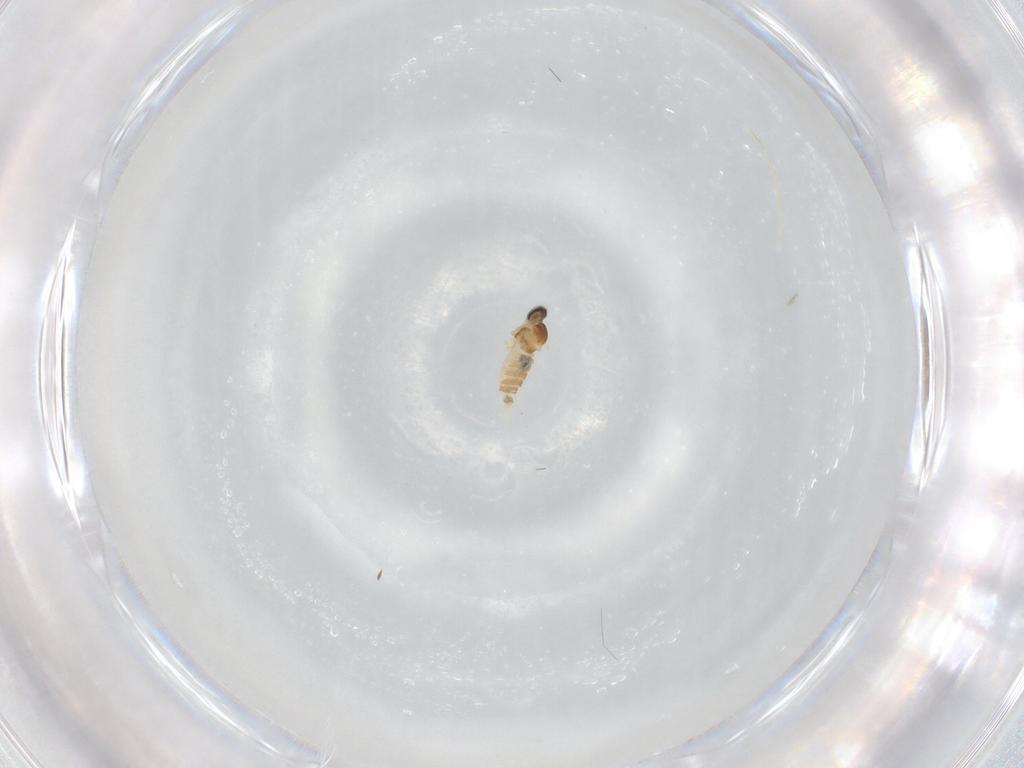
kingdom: Animalia
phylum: Arthropoda
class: Insecta
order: Diptera
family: Cecidomyiidae
